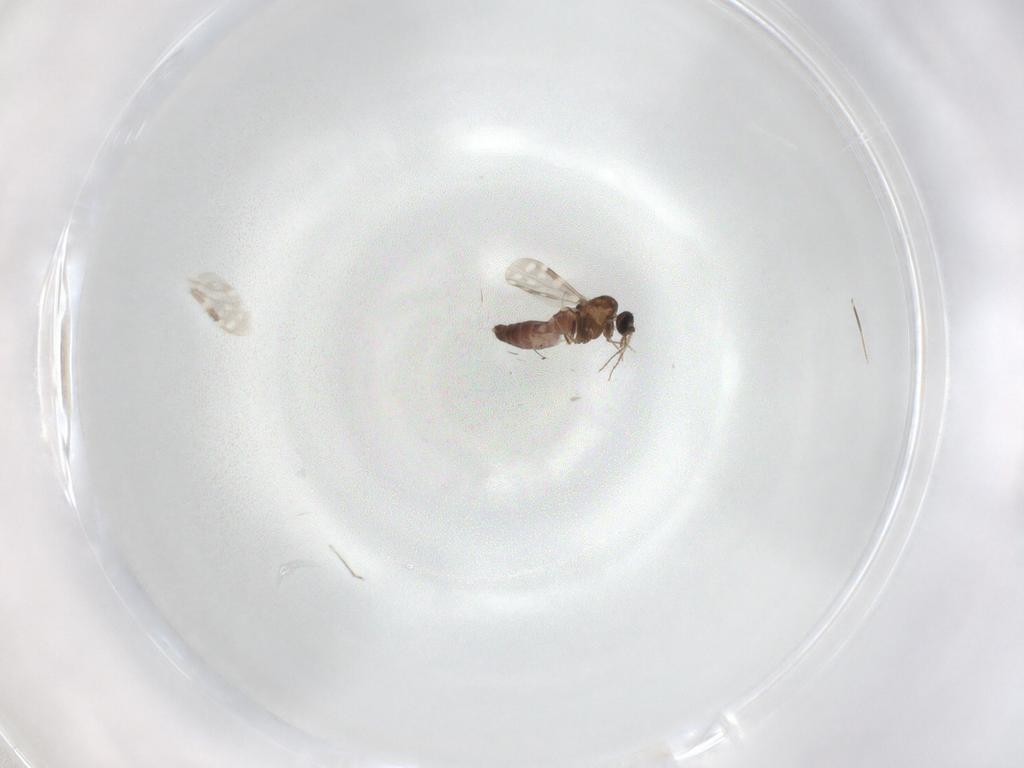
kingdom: Animalia
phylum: Arthropoda
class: Insecta
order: Diptera
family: Ceratopogonidae
